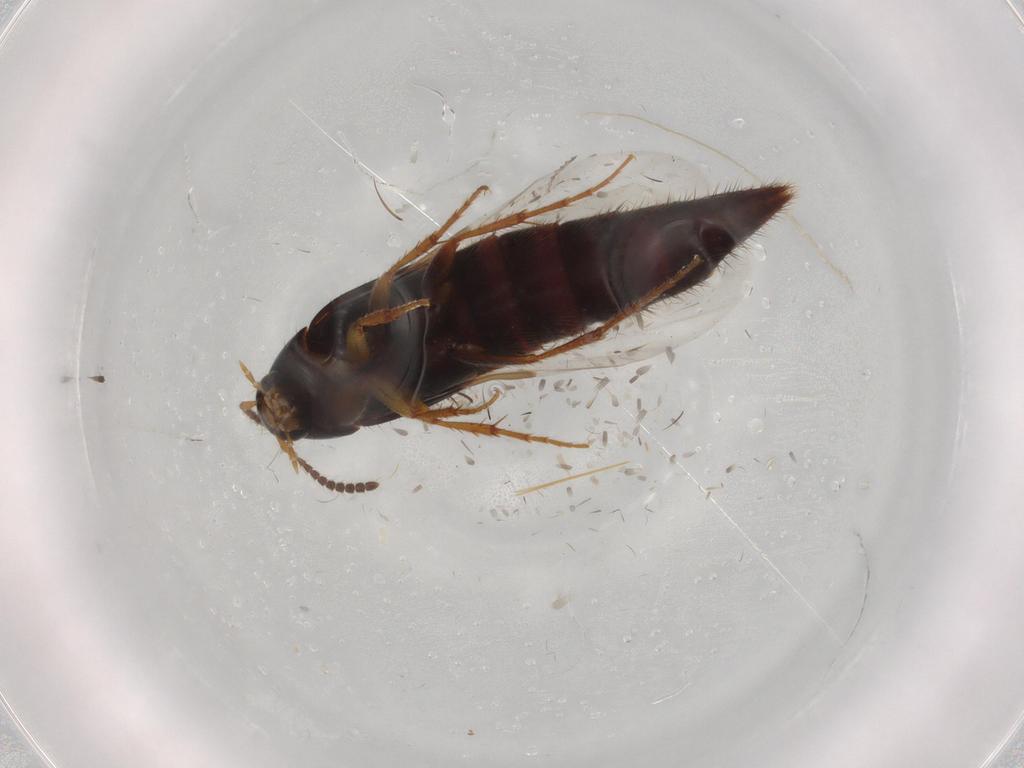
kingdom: Animalia
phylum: Arthropoda
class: Insecta
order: Coleoptera
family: Staphylinidae
